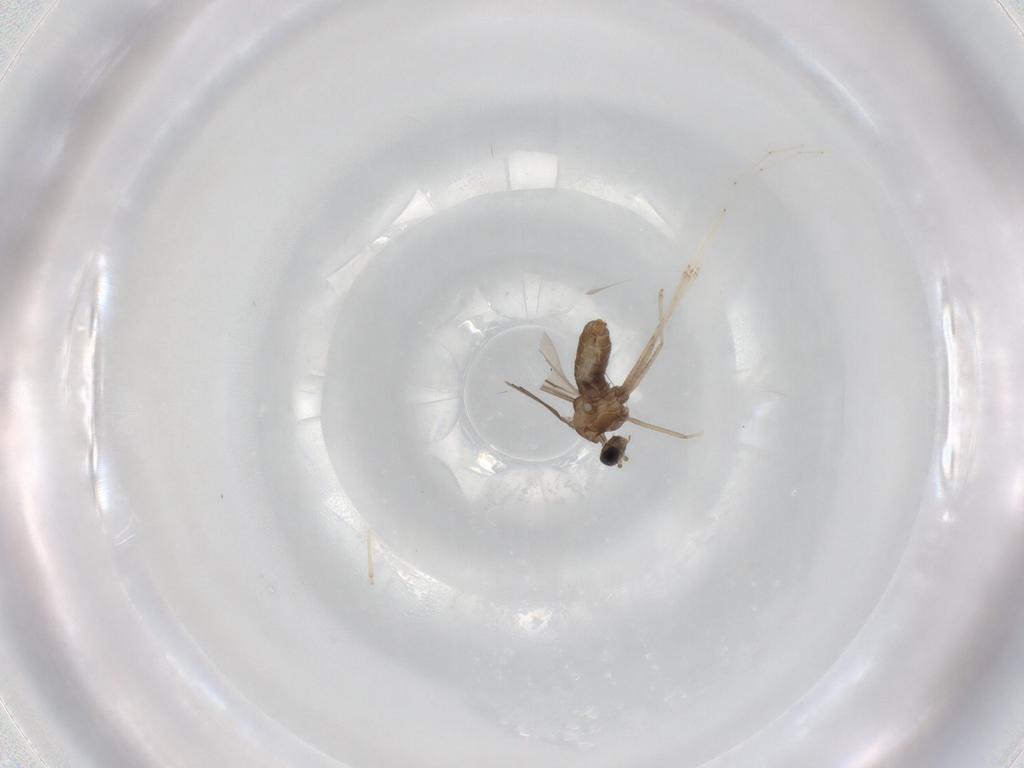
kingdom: Animalia
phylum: Arthropoda
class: Insecta
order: Diptera
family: Cecidomyiidae
